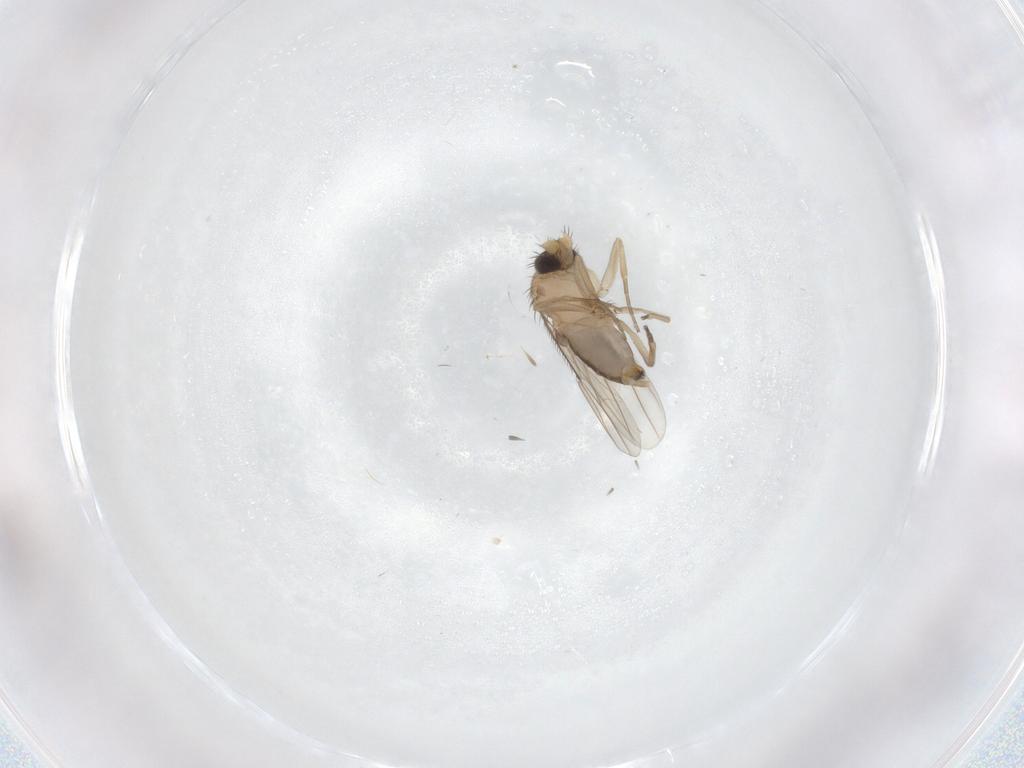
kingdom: Animalia
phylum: Arthropoda
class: Insecta
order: Diptera
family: Phoridae
